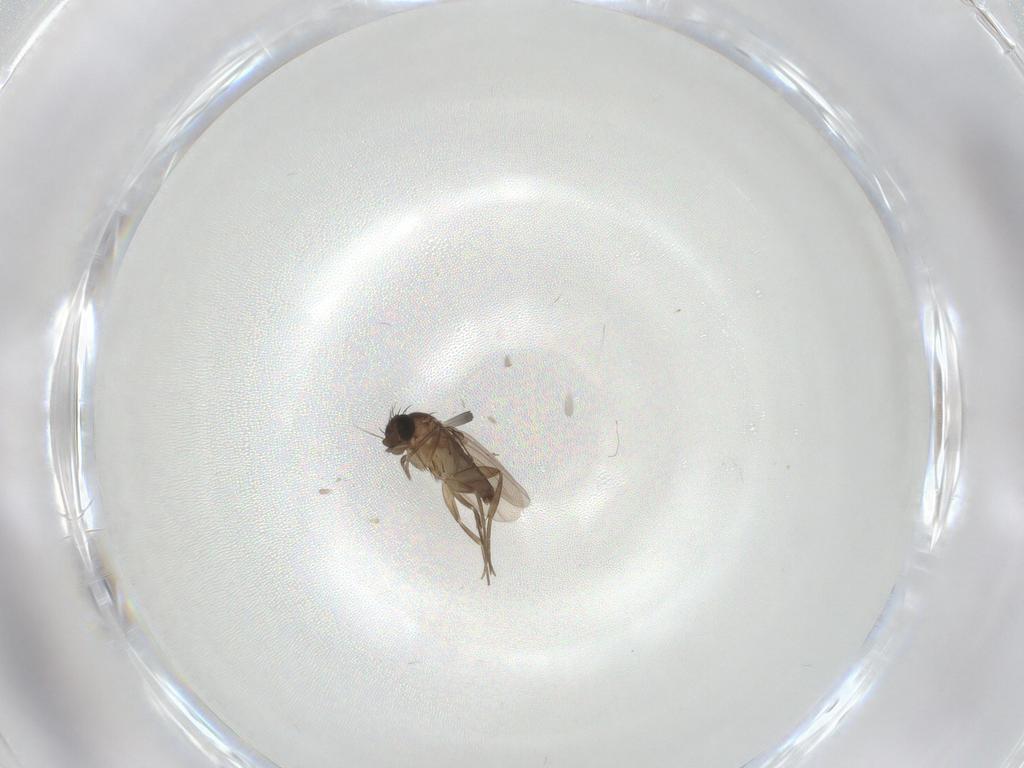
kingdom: Animalia
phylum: Arthropoda
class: Insecta
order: Diptera
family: Phoridae
